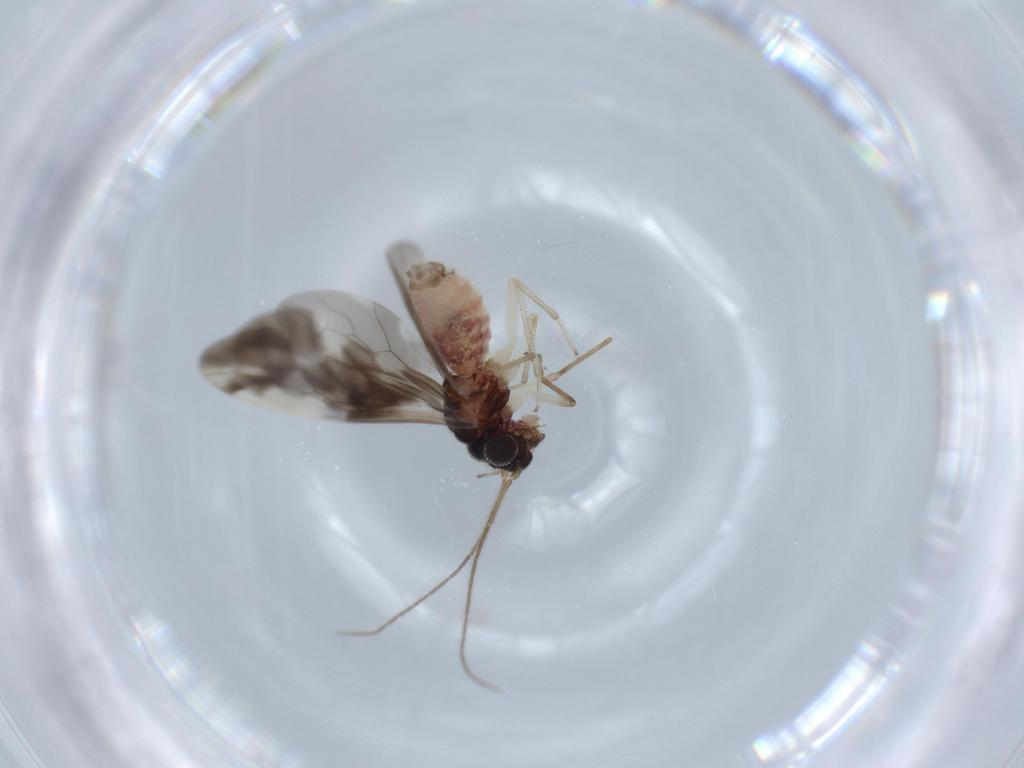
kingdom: Animalia
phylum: Arthropoda
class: Insecta
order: Psocodea
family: Caeciliusidae
